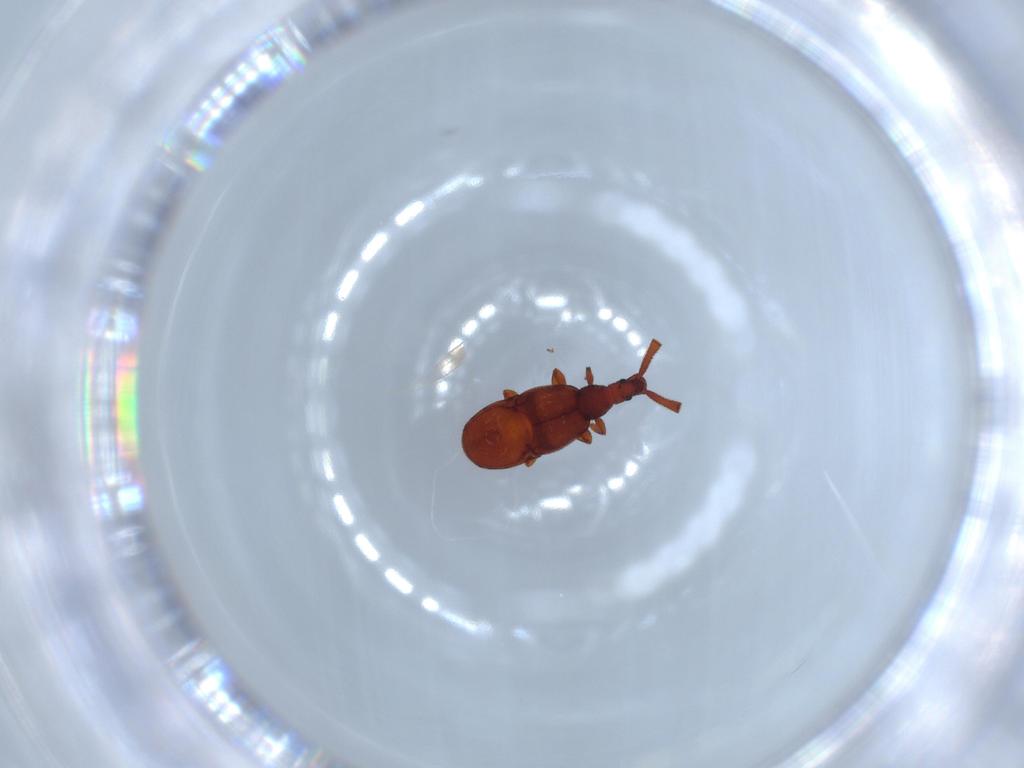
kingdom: Animalia
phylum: Arthropoda
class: Insecta
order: Coleoptera
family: Staphylinidae
